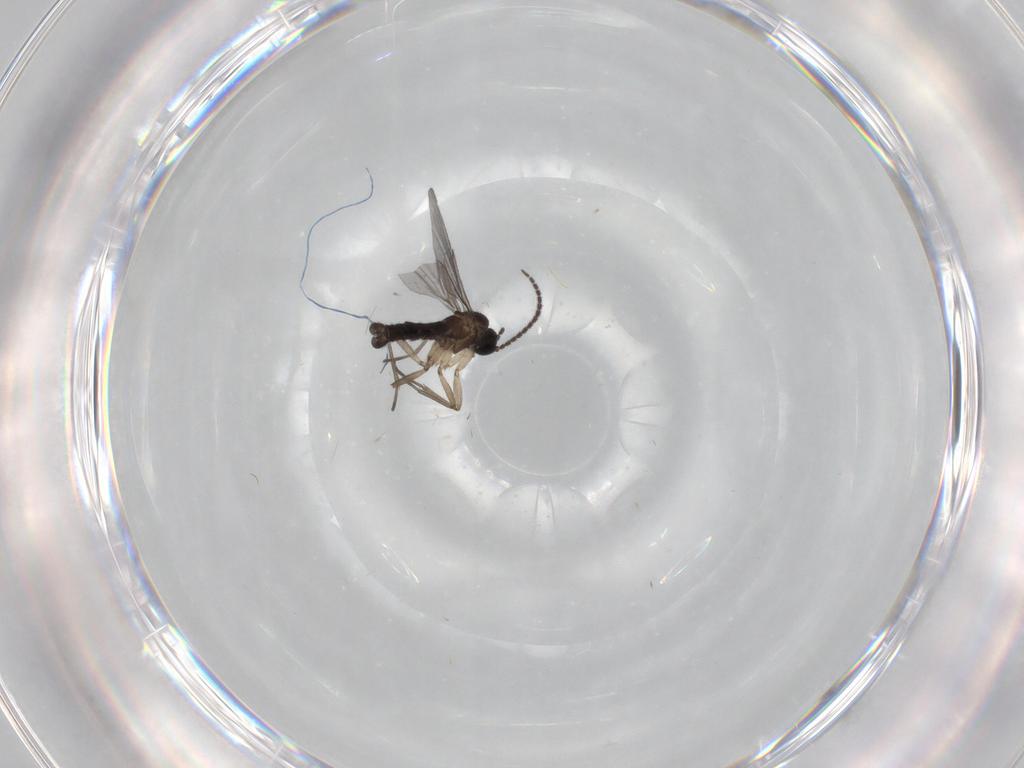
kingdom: Animalia
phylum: Arthropoda
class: Insecta
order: Diptera
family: Sciaridae
